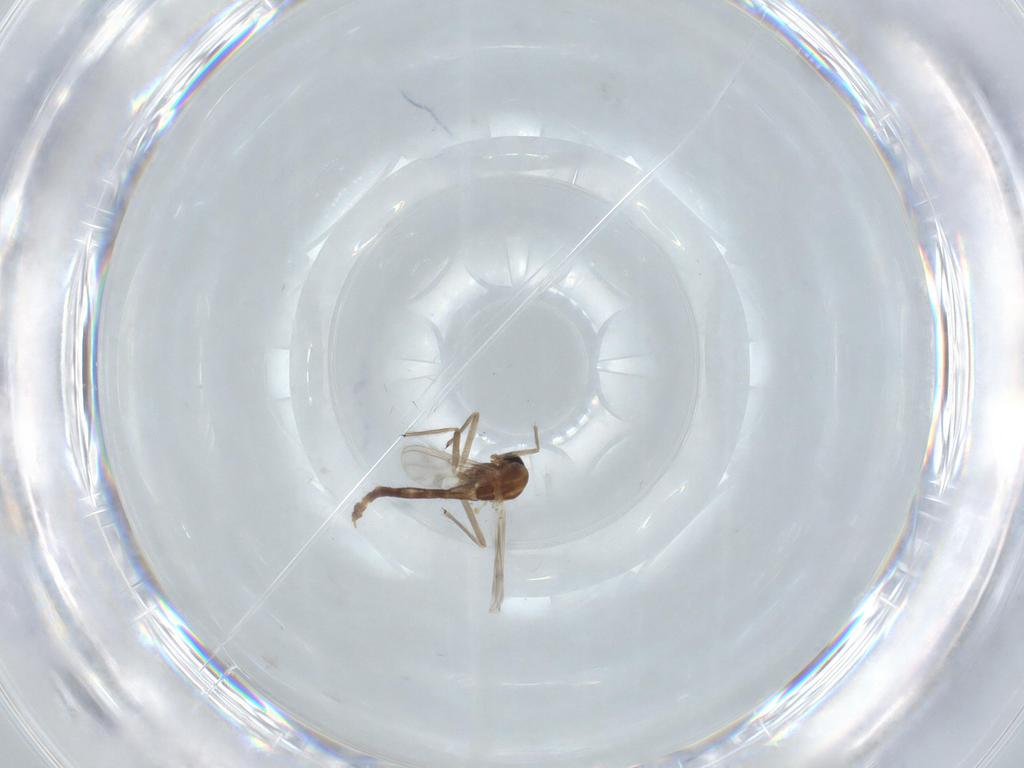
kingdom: Animalia
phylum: Arthropoda
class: Insecta
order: Diptera
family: Chironomidae
